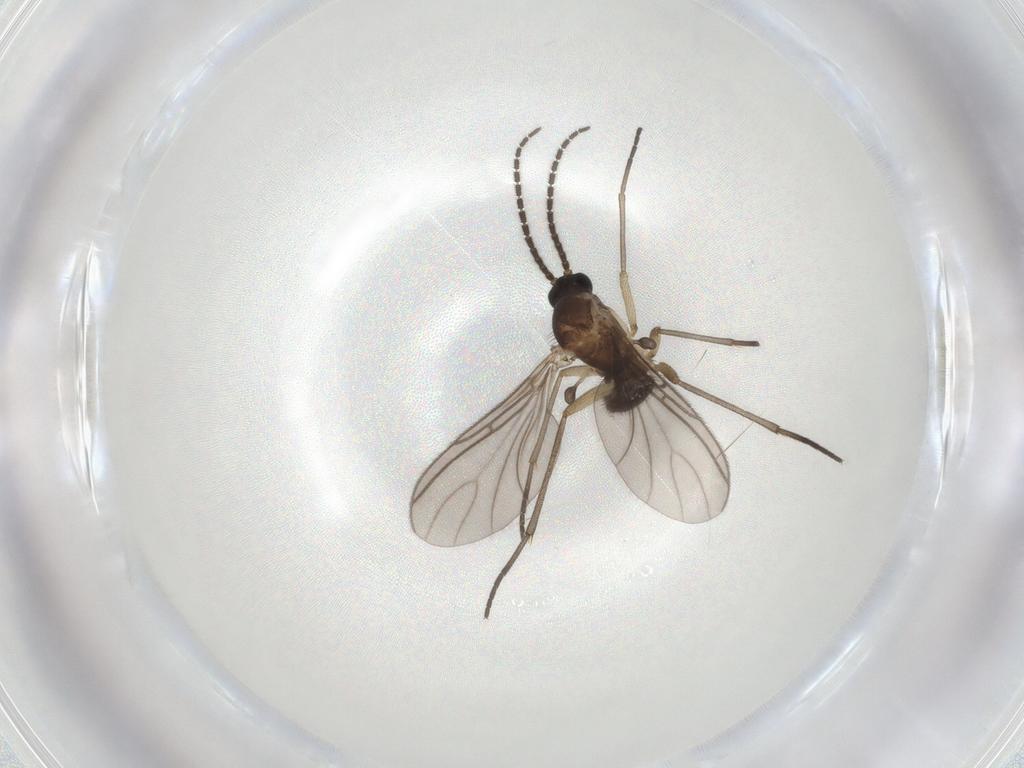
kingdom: Animalia
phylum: Arthropoda
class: Insecta
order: Diptera
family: Sciaridae
